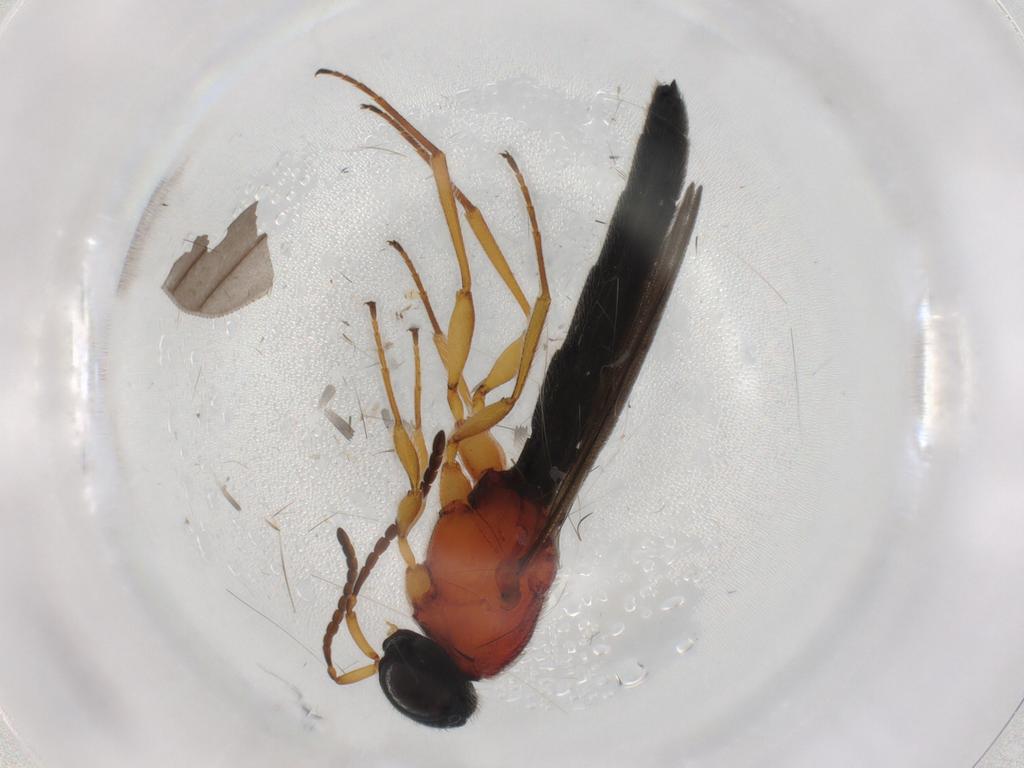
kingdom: Animalia
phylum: Arthropoda
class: Insecta
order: Hymenoptera
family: Scelionidae
